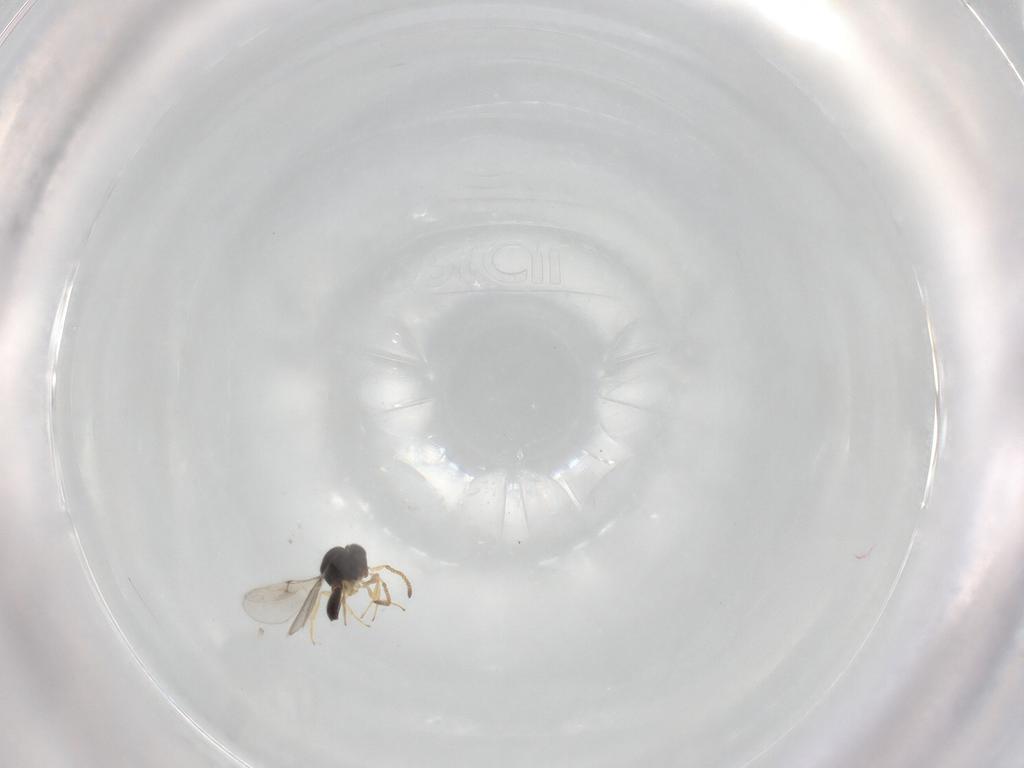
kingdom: Animalia
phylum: Arthropoda
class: Insecta
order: Hymenoptera
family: Scelionidae
